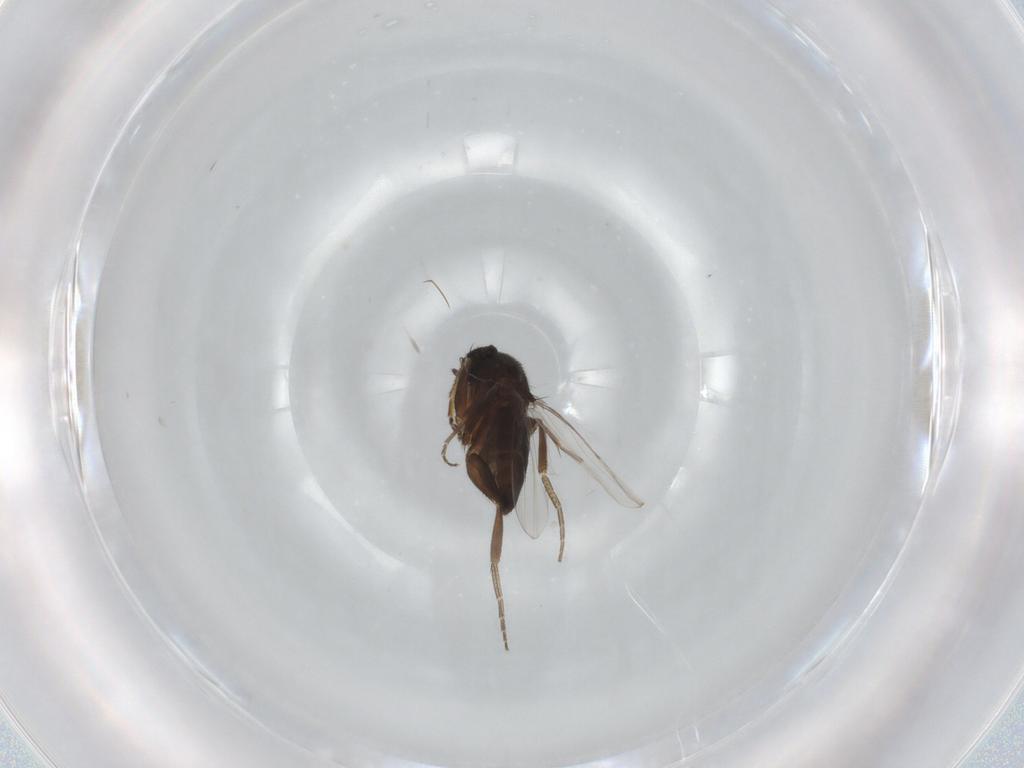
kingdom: Animalia
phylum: Arthropoda
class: Insecta
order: Diptera
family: Phoridae
